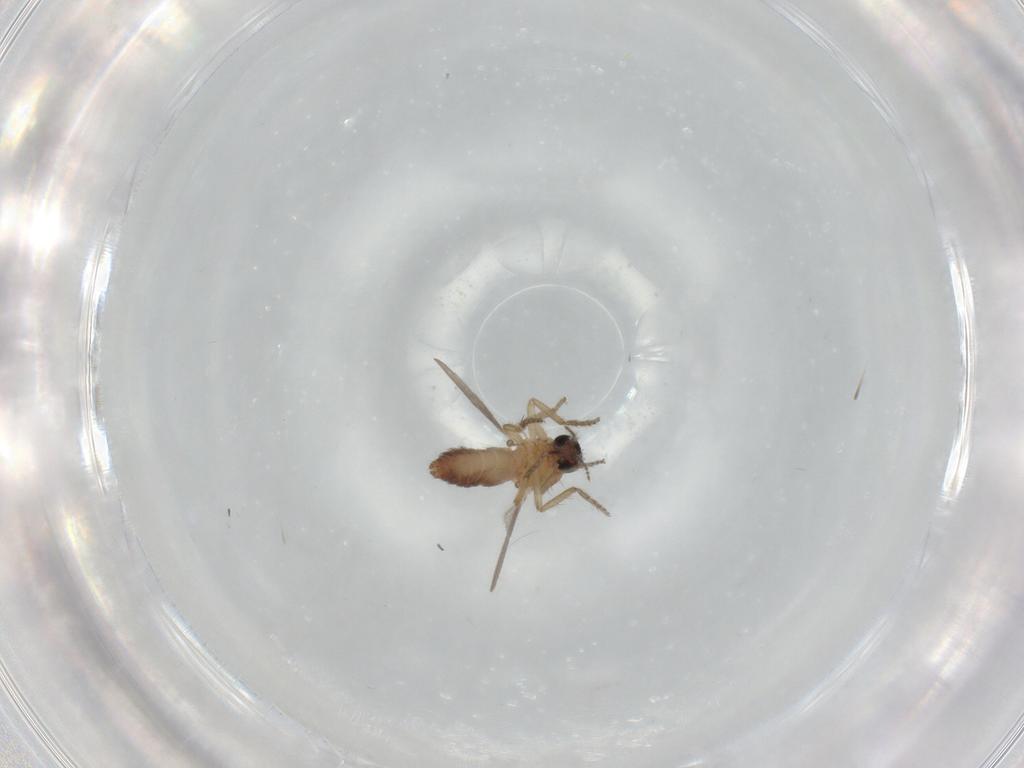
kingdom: Animalia
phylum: Arthropoda
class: Insecta
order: Diptera
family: Ceratopogonidae
